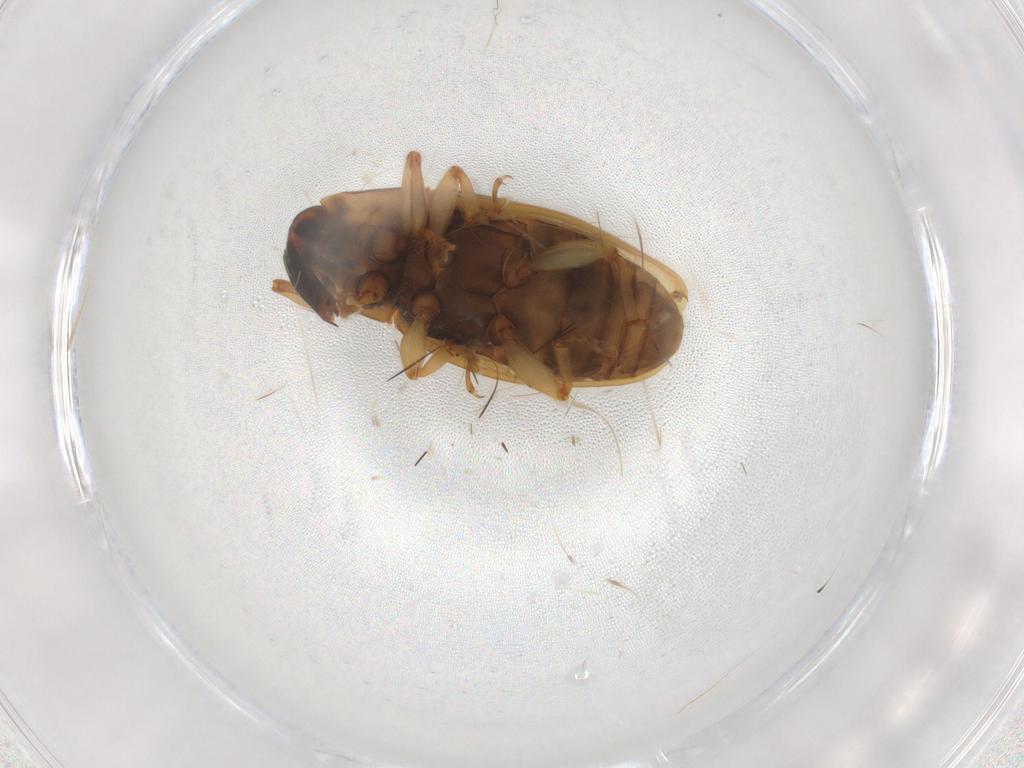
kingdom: Animalia
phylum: Arthropoda
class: Insecta
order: Coleoptera
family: Curculionidae
